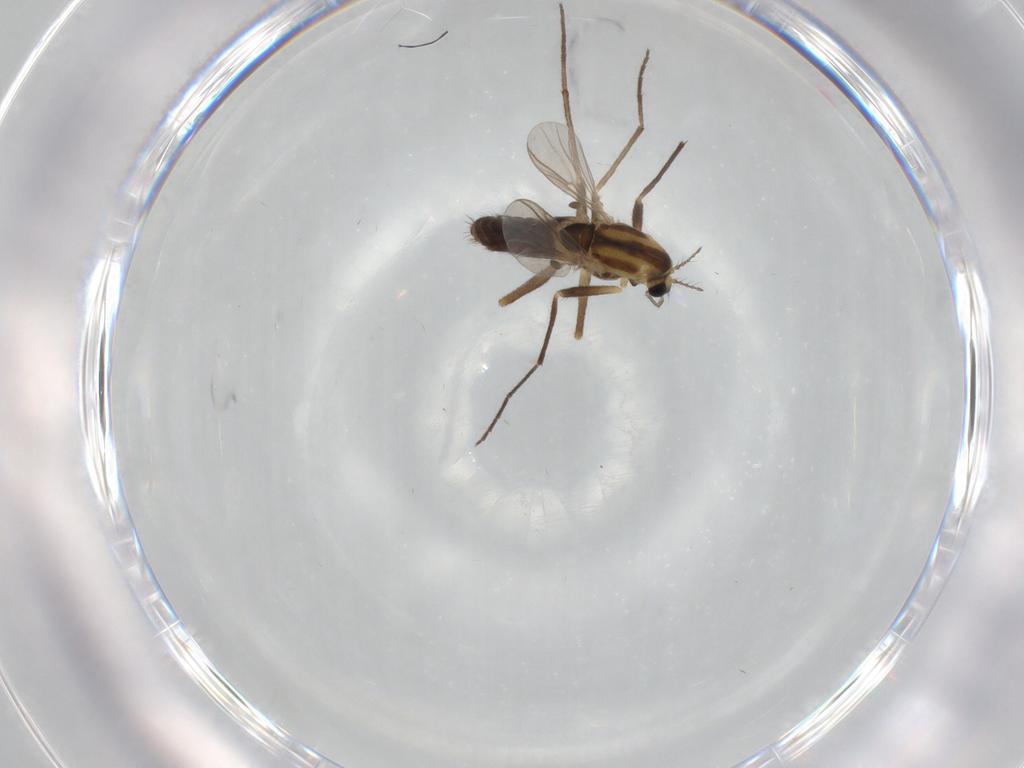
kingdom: Animalia
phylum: Arthropoda
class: Insecta
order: Diptera
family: Chironomidae
